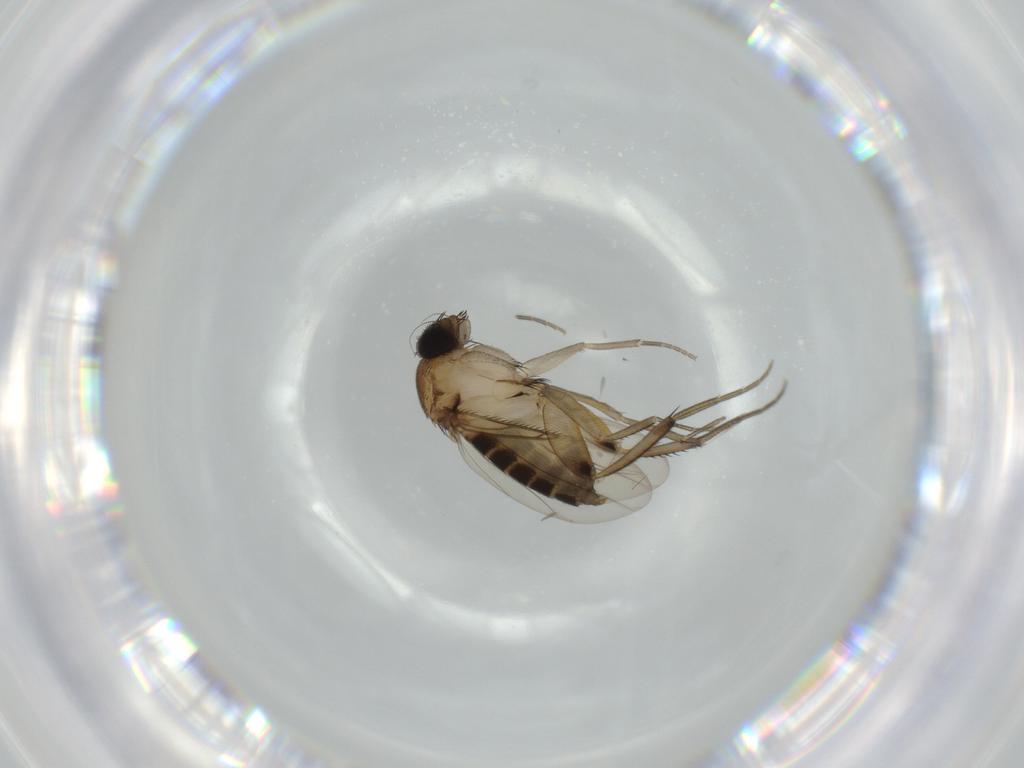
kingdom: Animalia
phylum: Arthropoda
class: Insecta
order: Diptera
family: Phoridae
